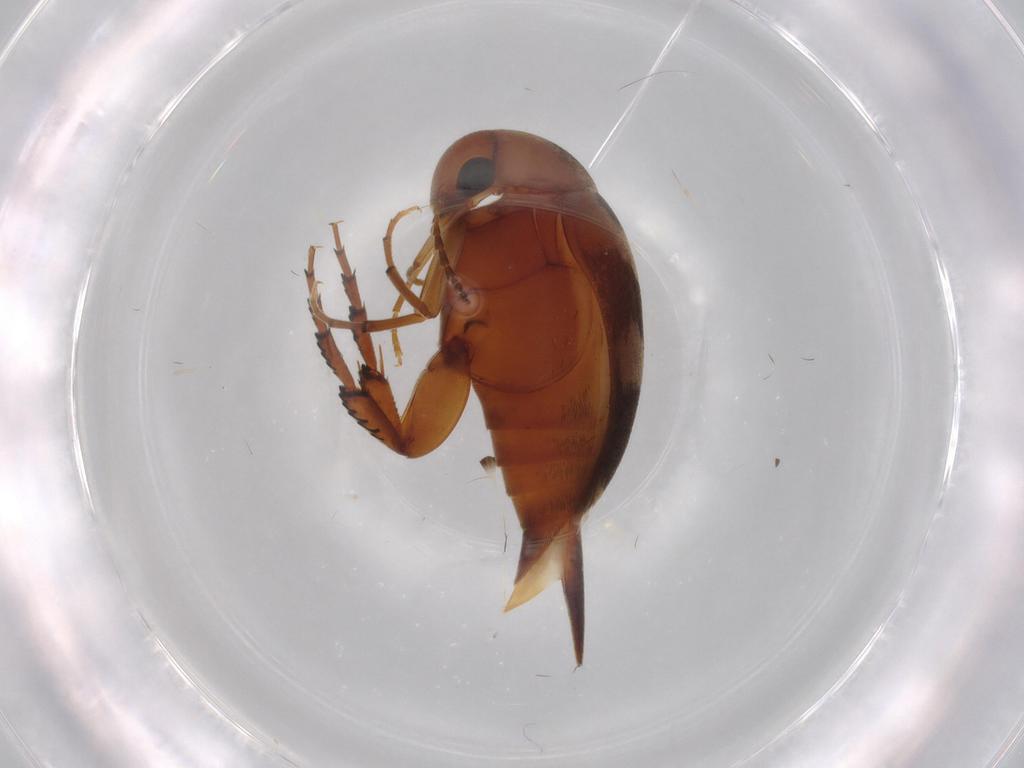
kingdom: Animalia
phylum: Arthropoda
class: Insecta
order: Coleoptera
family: Mordellidae
